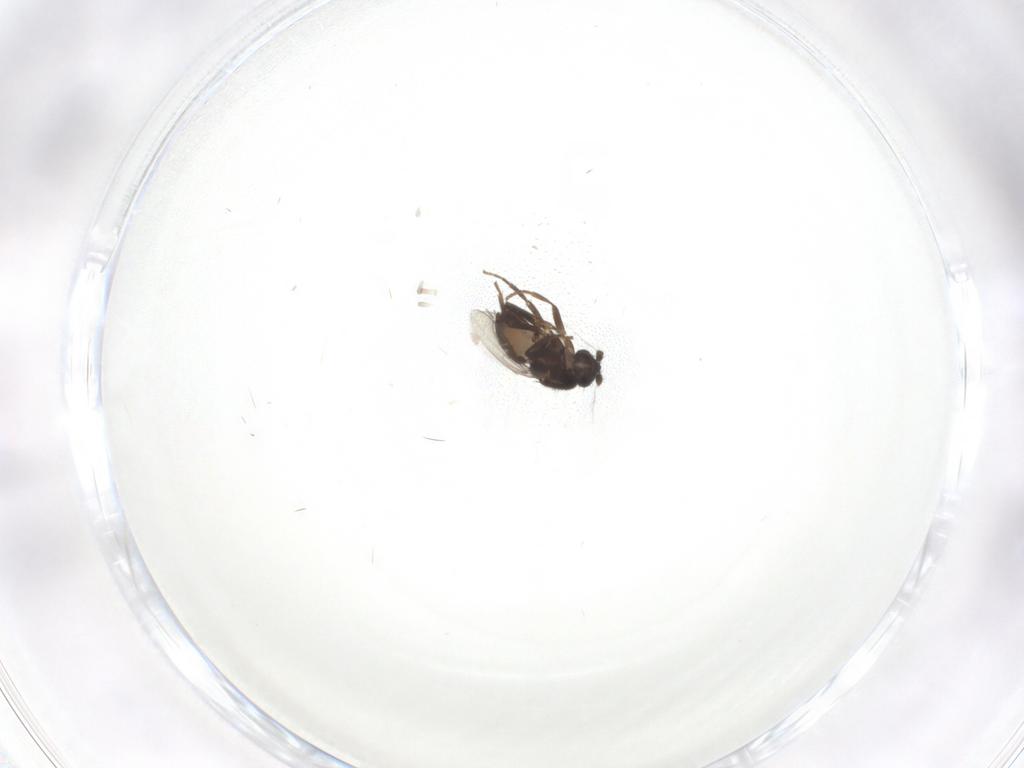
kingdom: Animalia
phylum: Arthropoda
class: Insecta
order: Diptera
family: Sphaeroceridae
